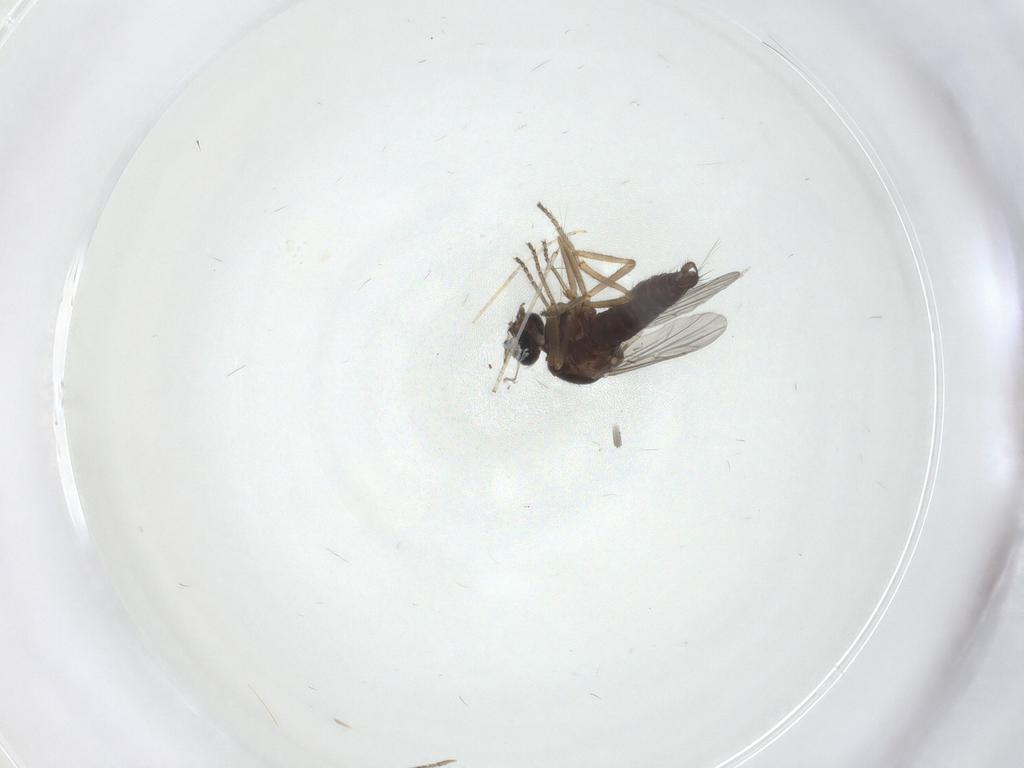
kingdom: Animalia
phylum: Arthropoda
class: Insecta
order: Diptera
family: Ceratopogonidae
